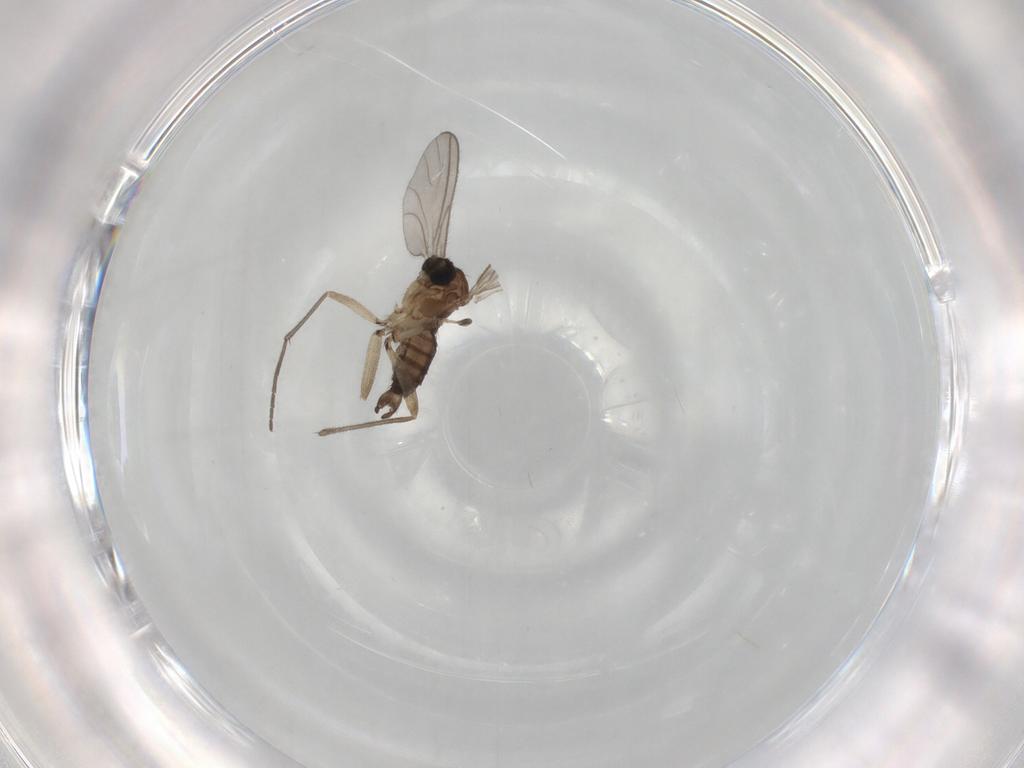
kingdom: Animalia
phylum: Arthropoda
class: Insecta
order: Diptera
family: Sciaridae
